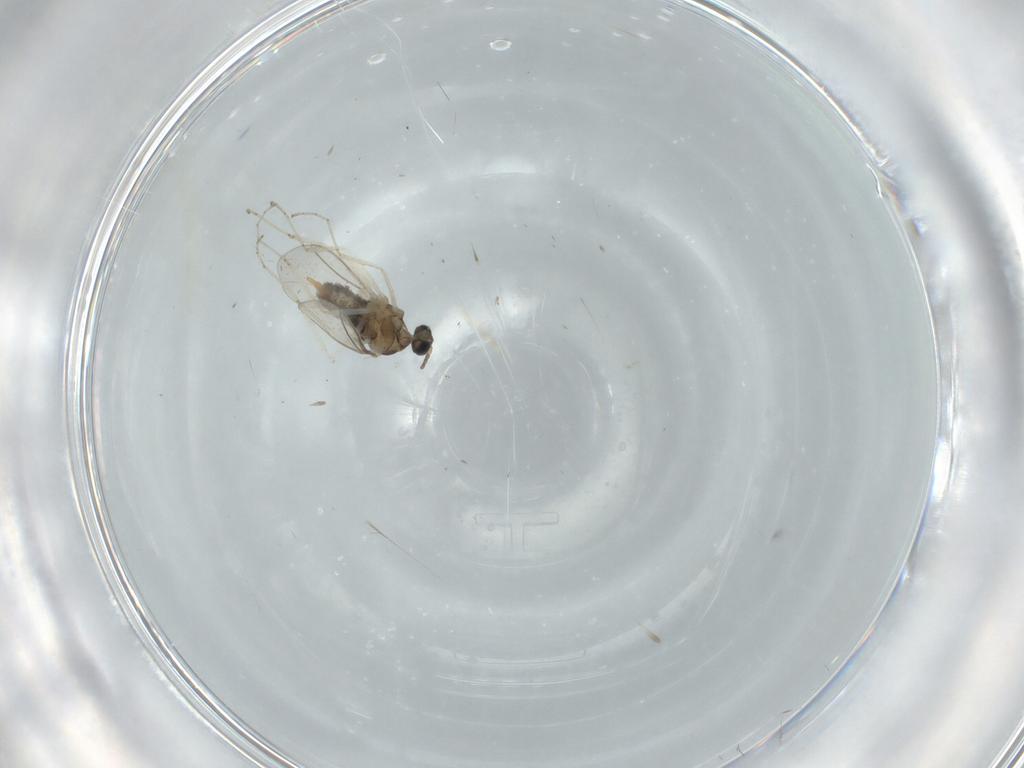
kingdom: Animalia
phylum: Arthropoda
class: Insecta
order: Diptera
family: Cecidomyiidae
